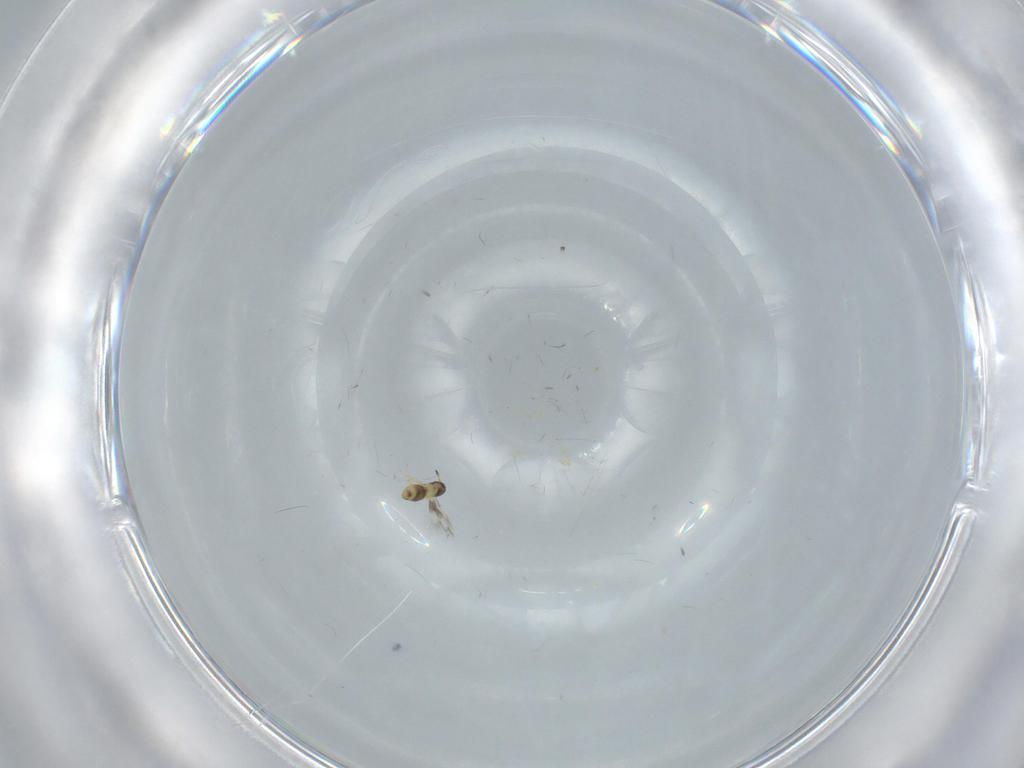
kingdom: Animalia
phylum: Arthropoda
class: Insecta
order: Hymenoptera
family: Signiphoridae
